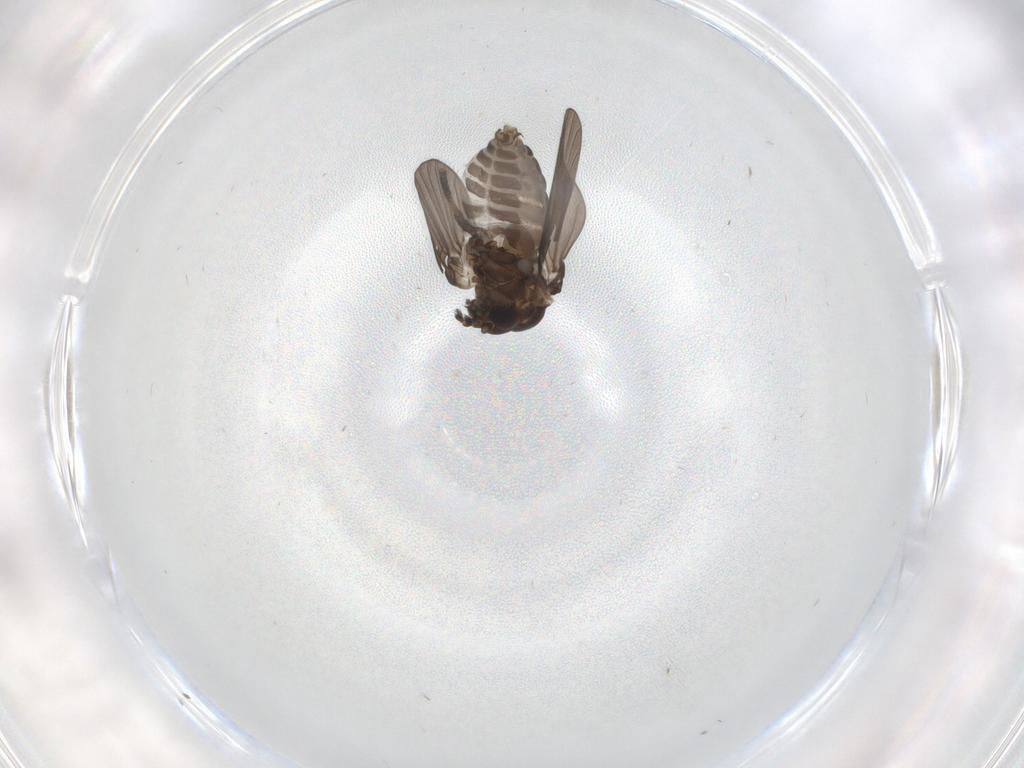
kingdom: Animalia
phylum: Arthropoda
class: Insecta
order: Diptera
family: Psychodidae
